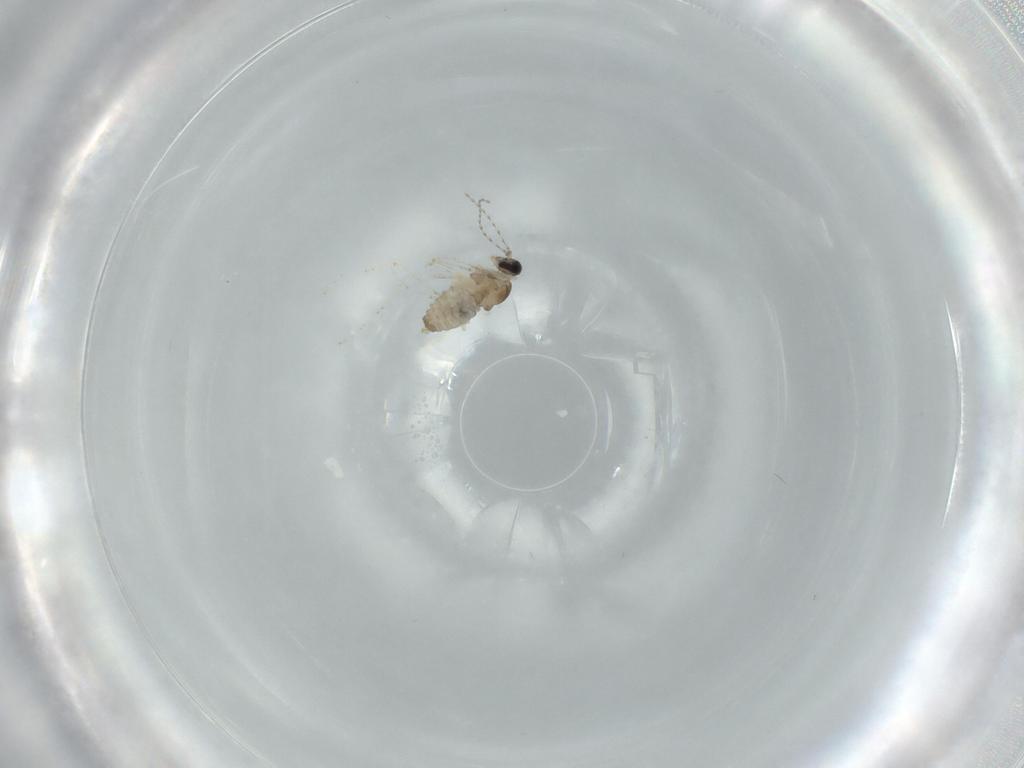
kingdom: Animalia
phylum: Arthropoda
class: Insecta
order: Diptera
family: Cecidomyiidae
